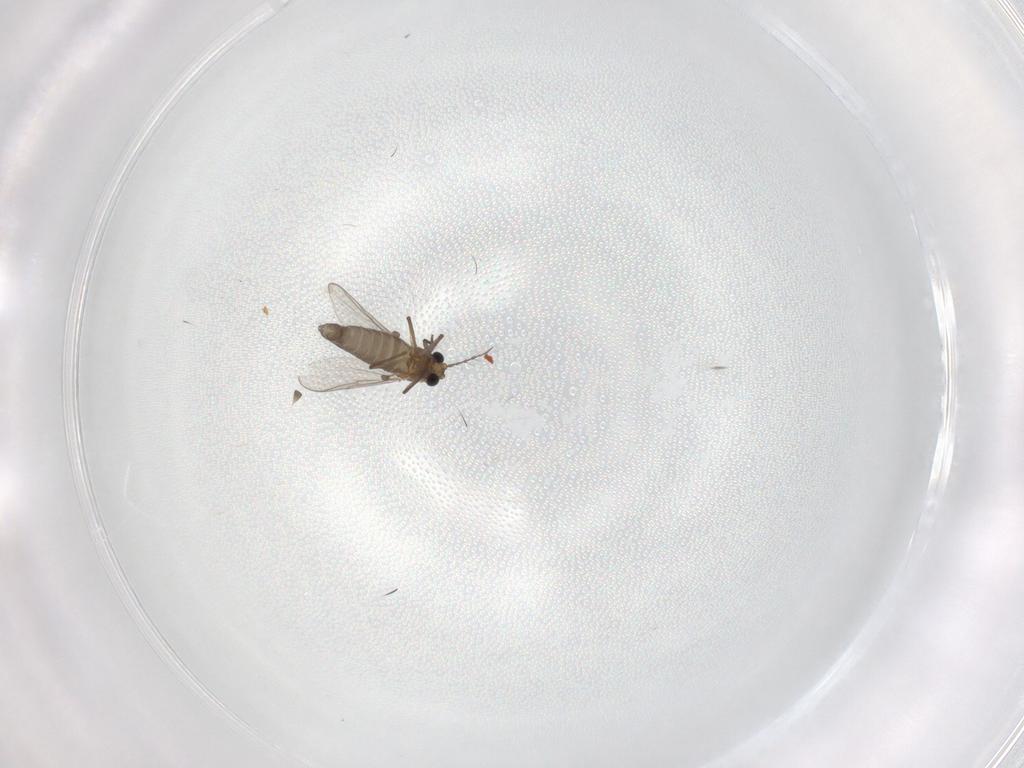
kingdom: Animalia
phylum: Arthropoda
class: Insecta
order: Diptera
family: Chironomidae
